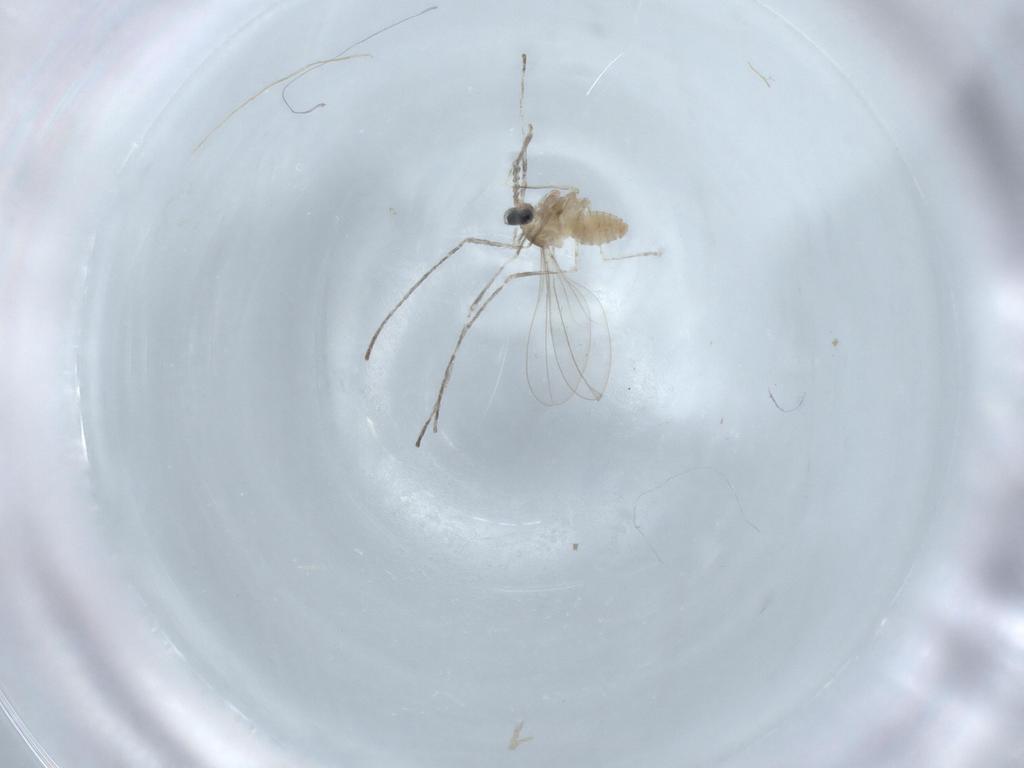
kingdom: Animalia
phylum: Arthropoda
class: Insecta
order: Diptera
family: Cecidomyiidae
